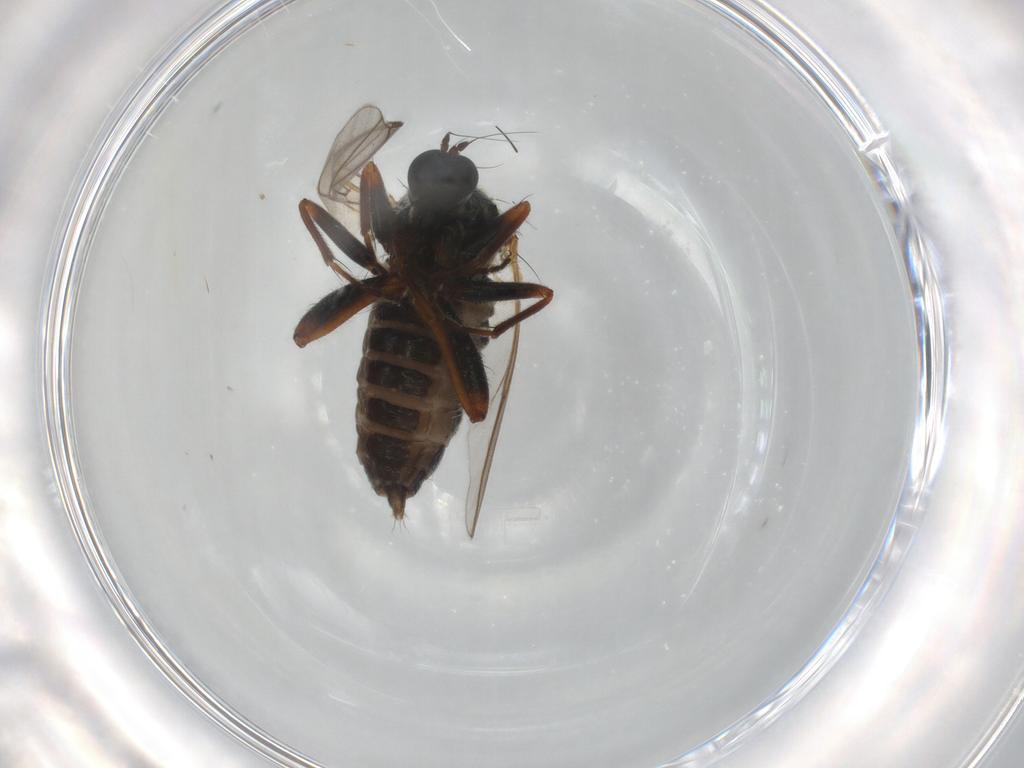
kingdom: Animalia
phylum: Arthropoda
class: Insecta
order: Diptera
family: Hybotidae
